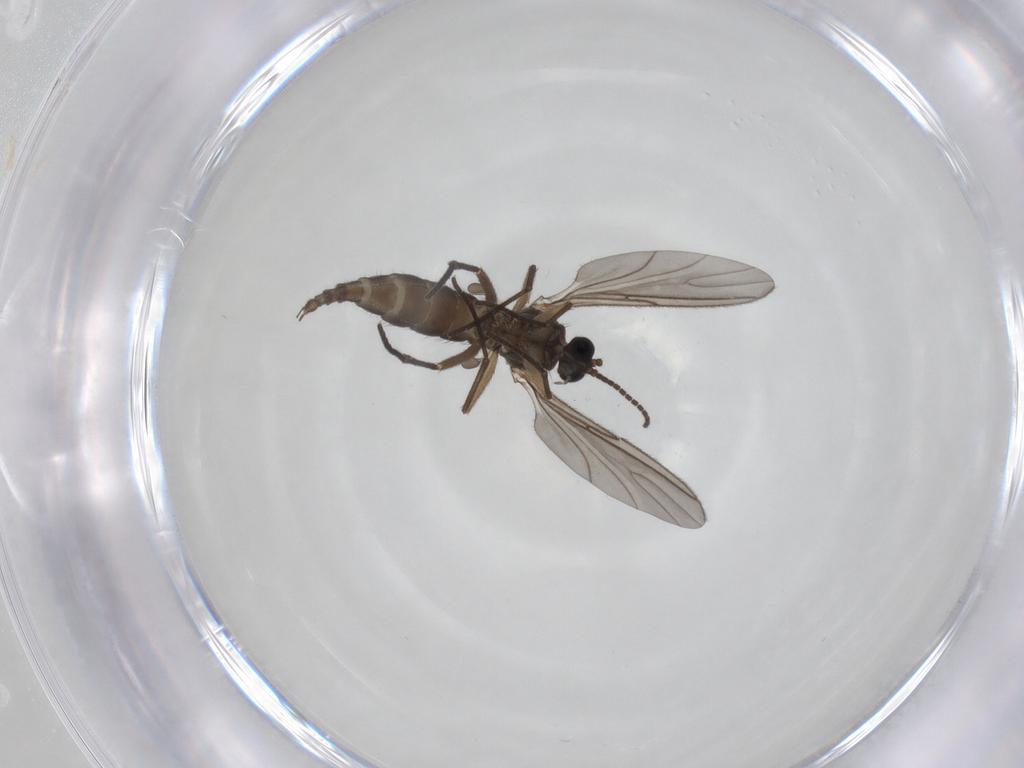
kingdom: Animalia
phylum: Arthropoda
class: Insecta
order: Diptera
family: Sciaridae
